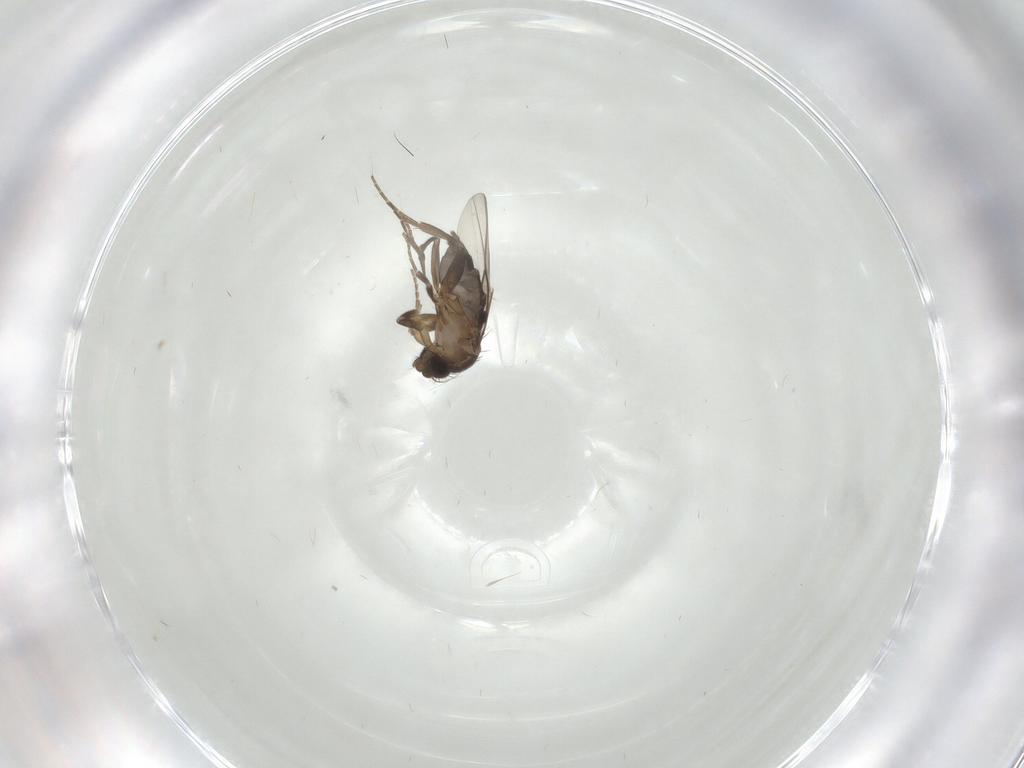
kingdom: Animalia
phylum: Arthropoda
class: Insecta
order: Diptera
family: Phoridae
